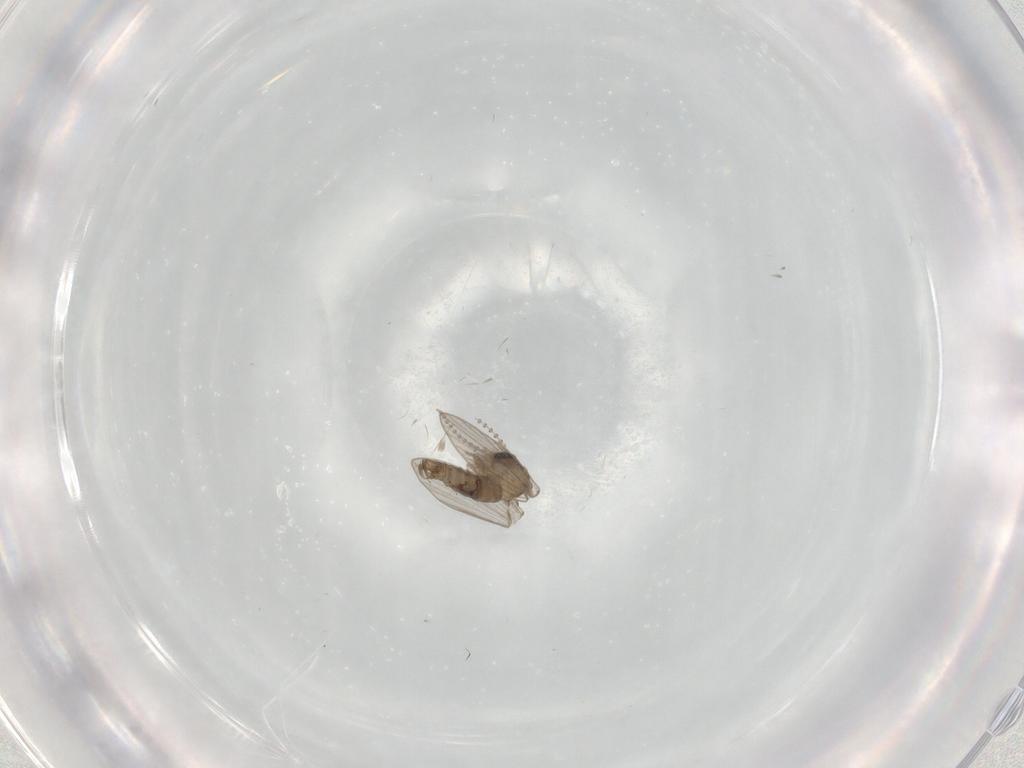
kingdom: Animalia
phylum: Arthropoda
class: Insecta
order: Diptera
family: Psychodidae
